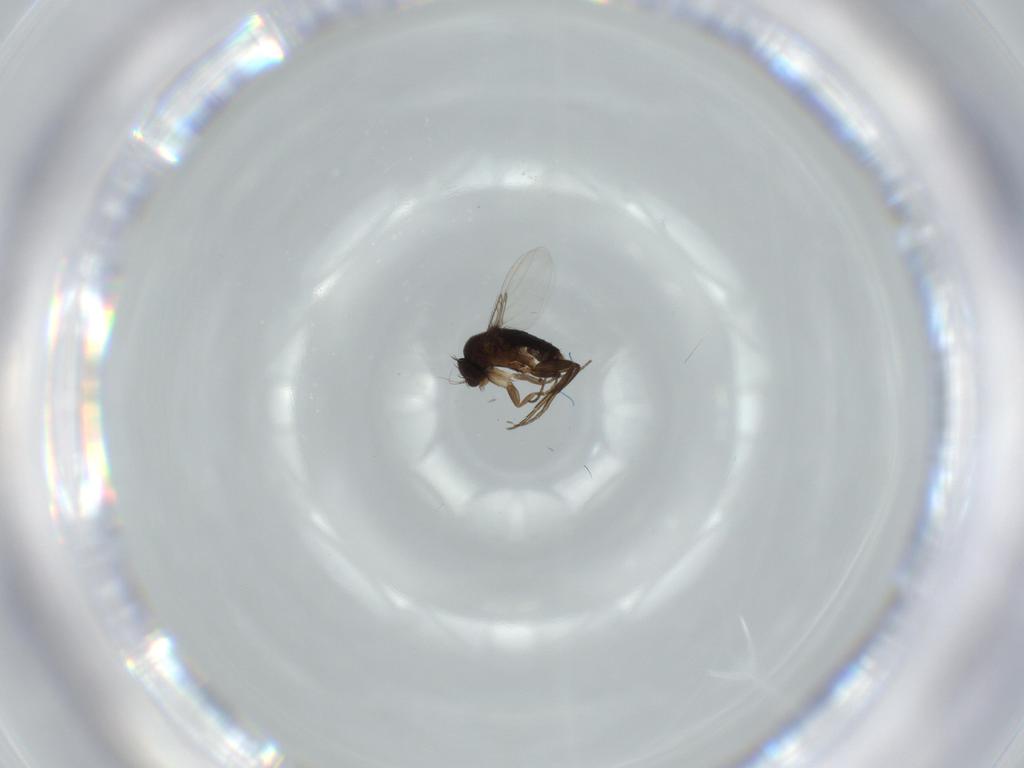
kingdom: Animalia
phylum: Arthropoda
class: Insecta
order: Diptera
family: Phoridae
